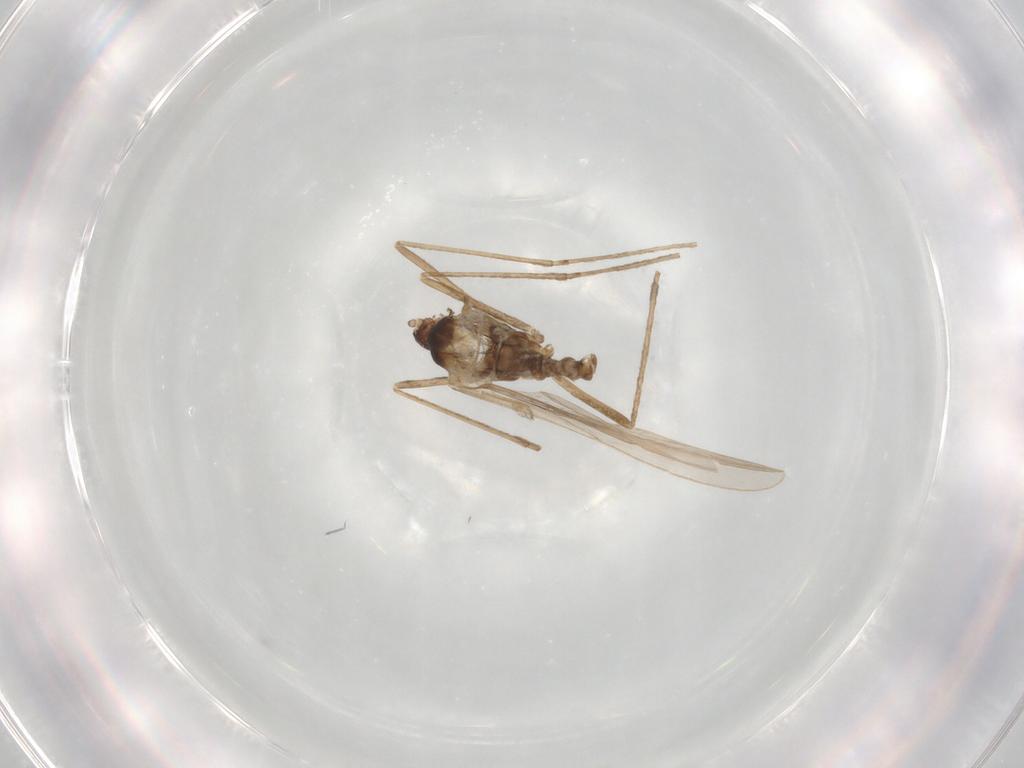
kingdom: Animalia
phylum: Arthropoda
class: Insecta
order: Diptera
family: Cecidomyiidae
